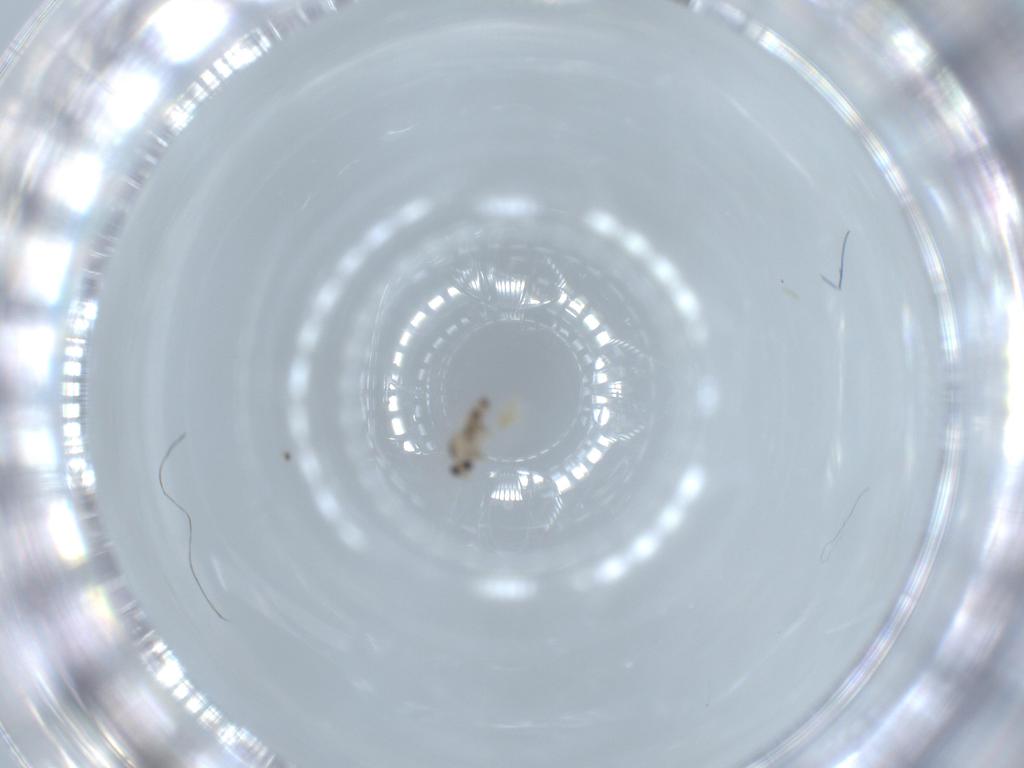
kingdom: Animalia
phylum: Arthropoda
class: Insecta
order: Diptera
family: Cecidomyiidae
